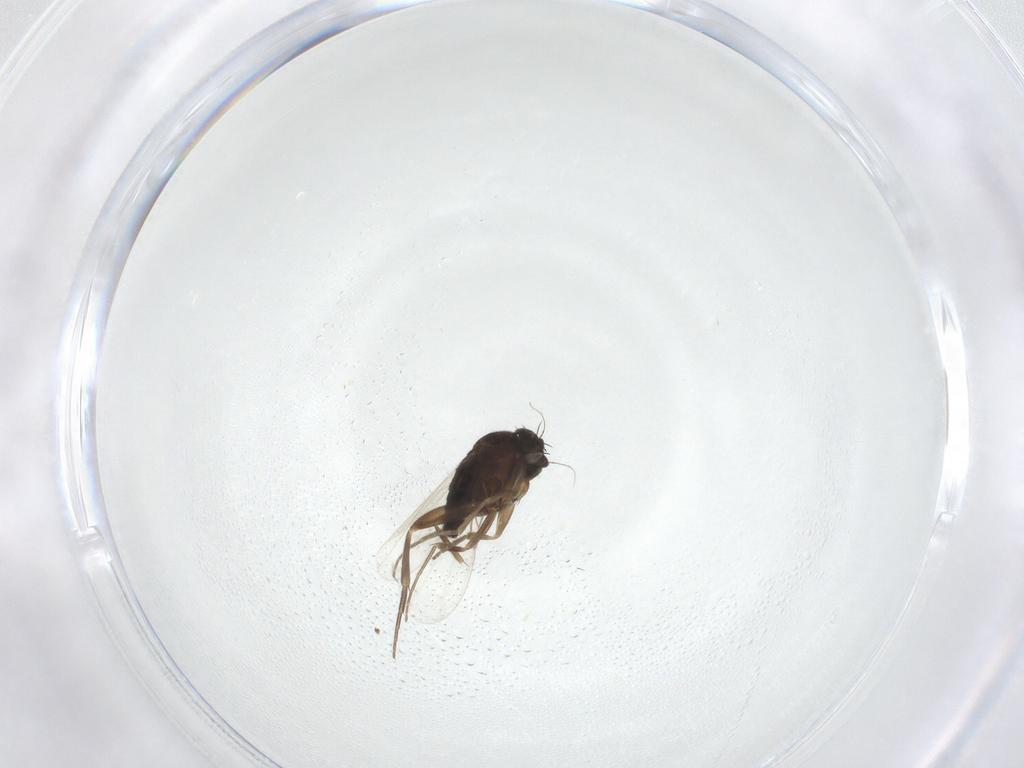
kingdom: Animalia
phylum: Arthropoda
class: Insecta
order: Diptera
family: Phoridae
